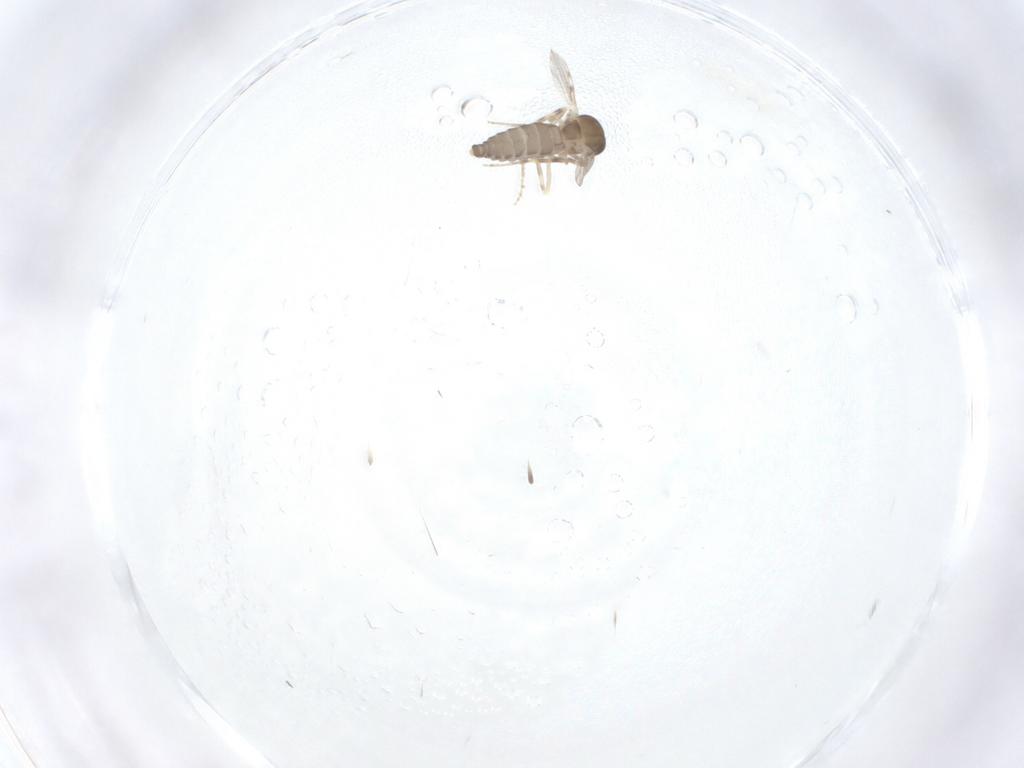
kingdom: Animalia
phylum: Arthropoda
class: Insecta
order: Diptera
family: Ceratopogonidae
